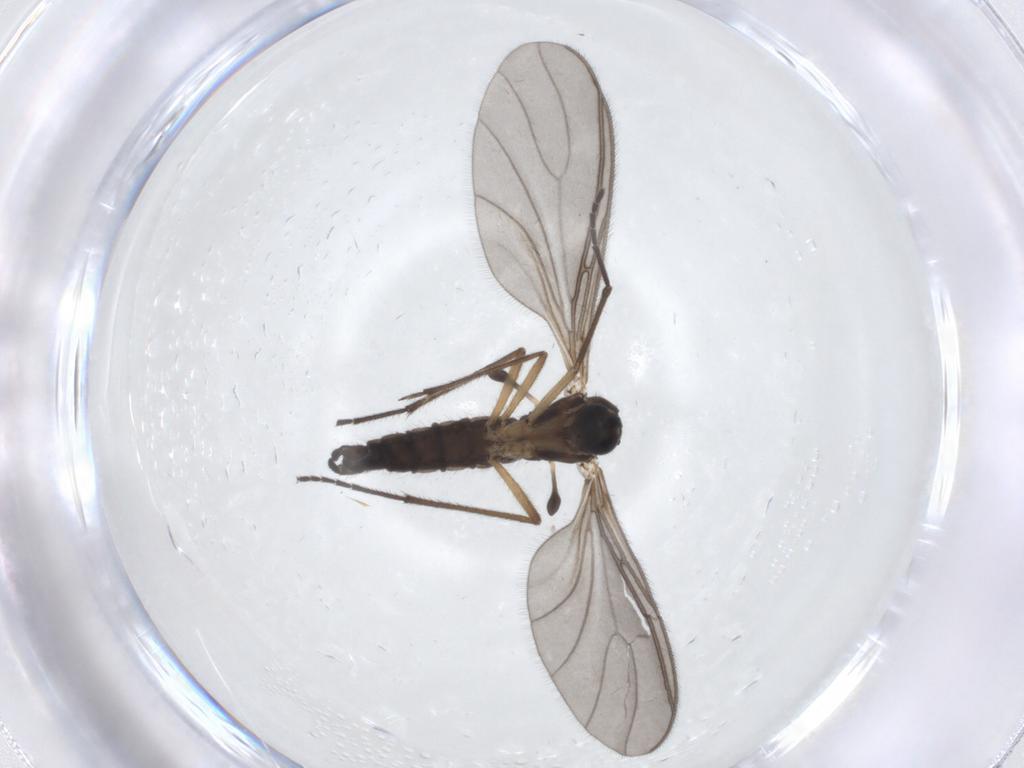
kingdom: Animalia
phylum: Arthropoda
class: Insecta
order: Diptera
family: Sciaridae
